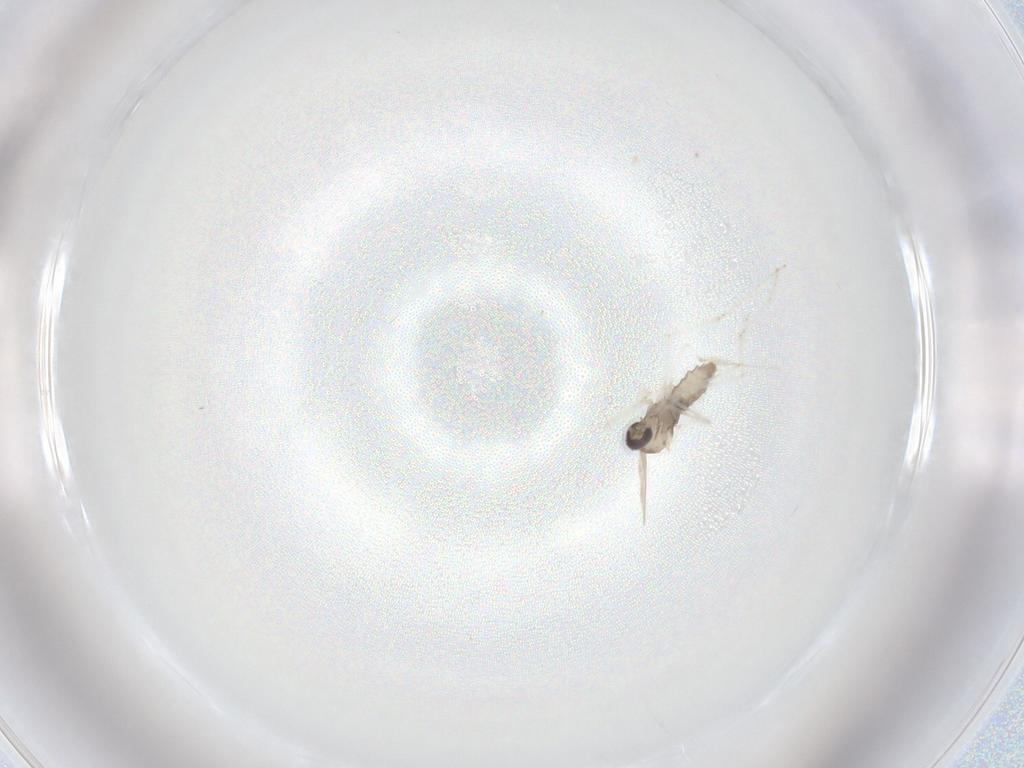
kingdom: Animalia
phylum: Arthropoda
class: Insecta
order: Diptera
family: Cecidomyiidae
